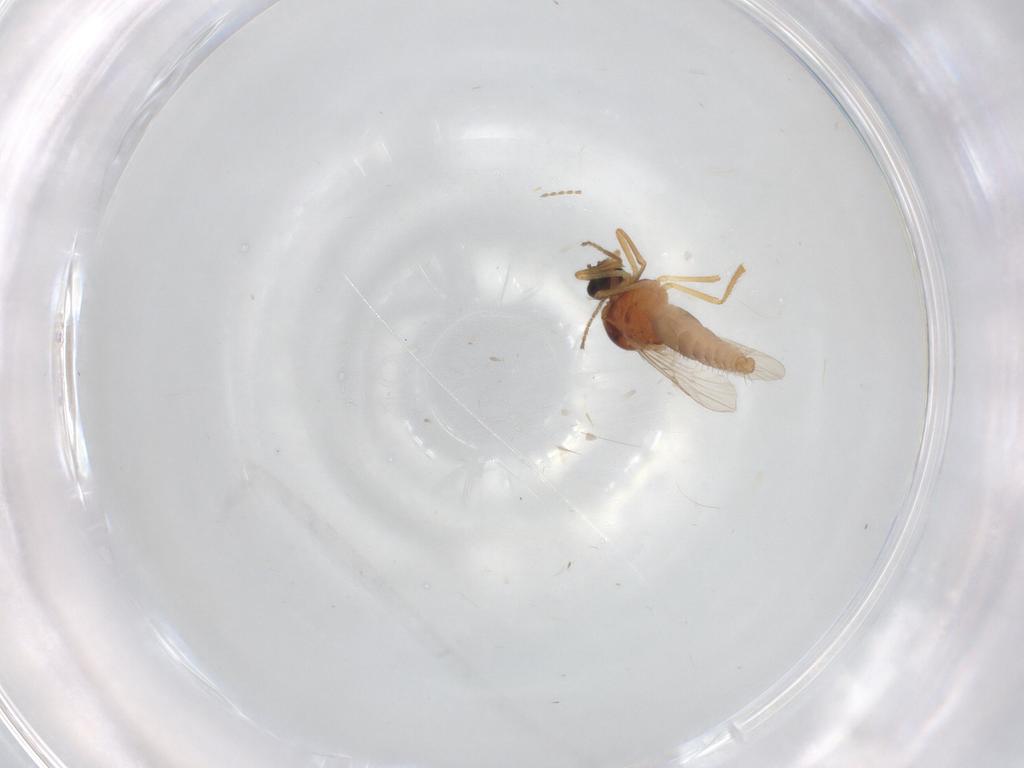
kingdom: Animalia
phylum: Arthropoda
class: Insecta
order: Diptera
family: Ceratopogonidae
